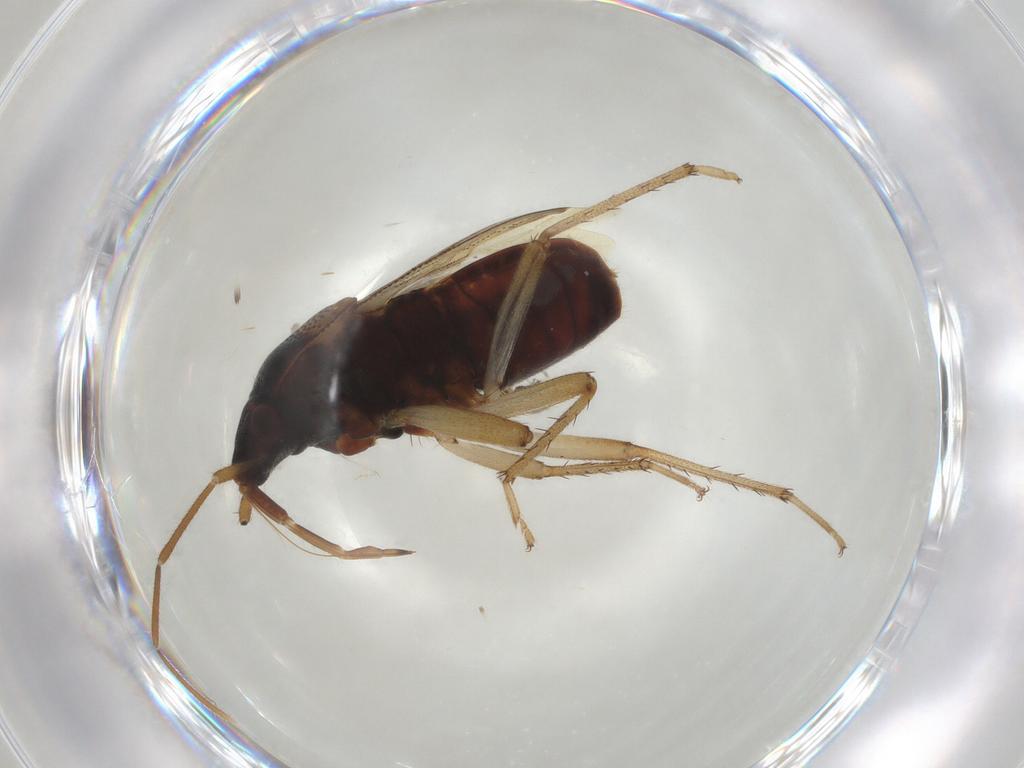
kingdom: Animalia
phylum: Arthropoda
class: Insecta
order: Hemiptera
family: Rhyparochromidae
